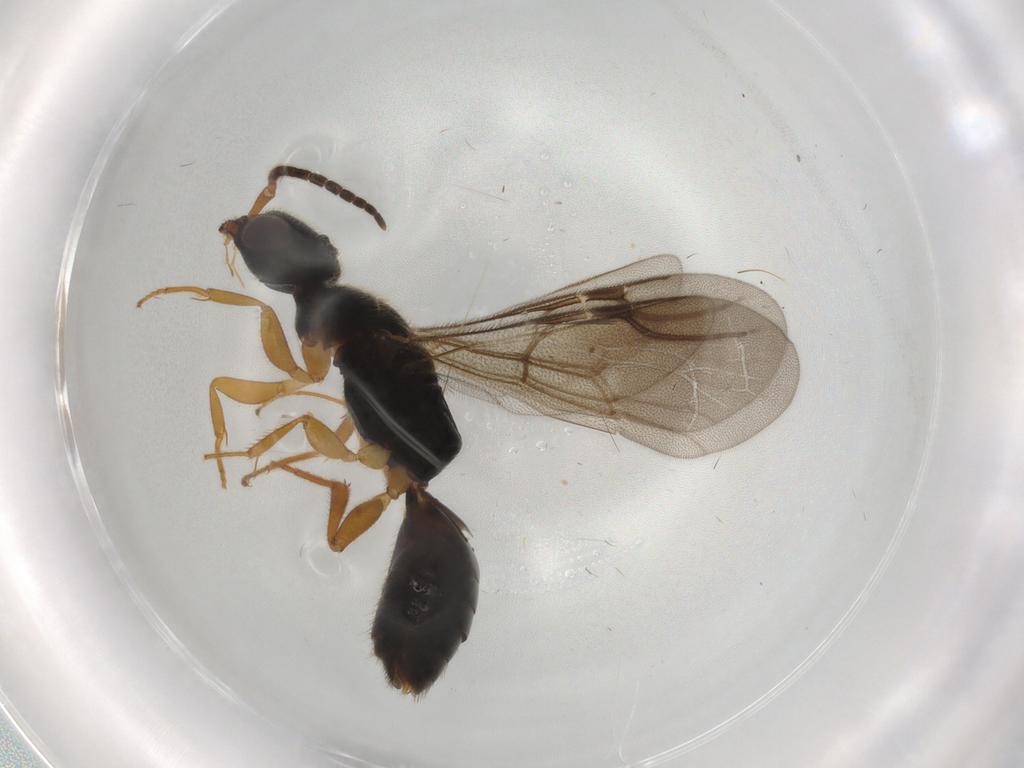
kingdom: Animalia
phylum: Arthropoda
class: Insecta
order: Hymenoptera
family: Bethylidae
